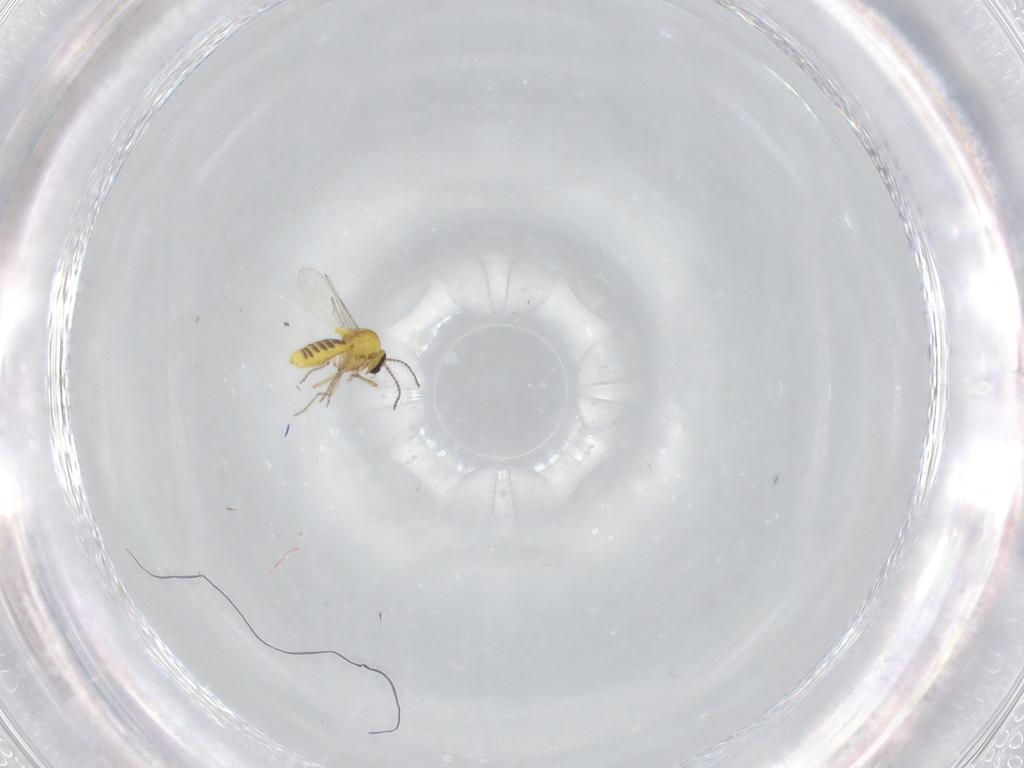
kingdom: Animalia
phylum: Arthropoda
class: Insecta
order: Diptera
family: Ceratopogonidae
